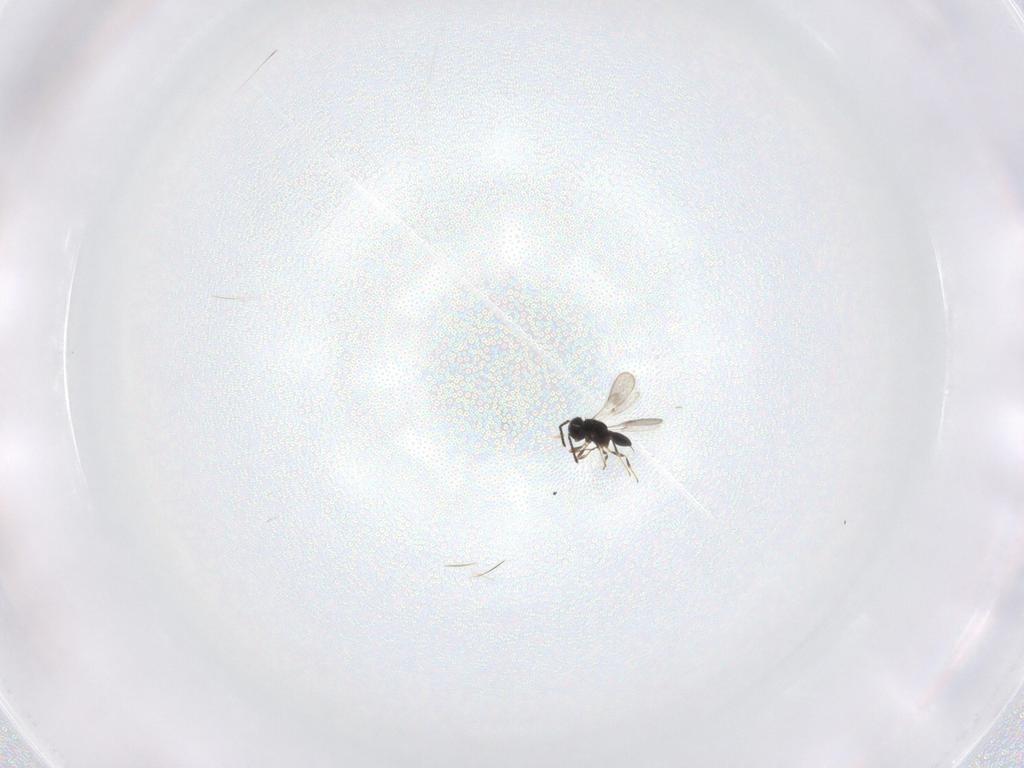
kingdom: Animalia
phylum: Arthropoda
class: Insecta
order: Hymenoptera
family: Scelionidae
